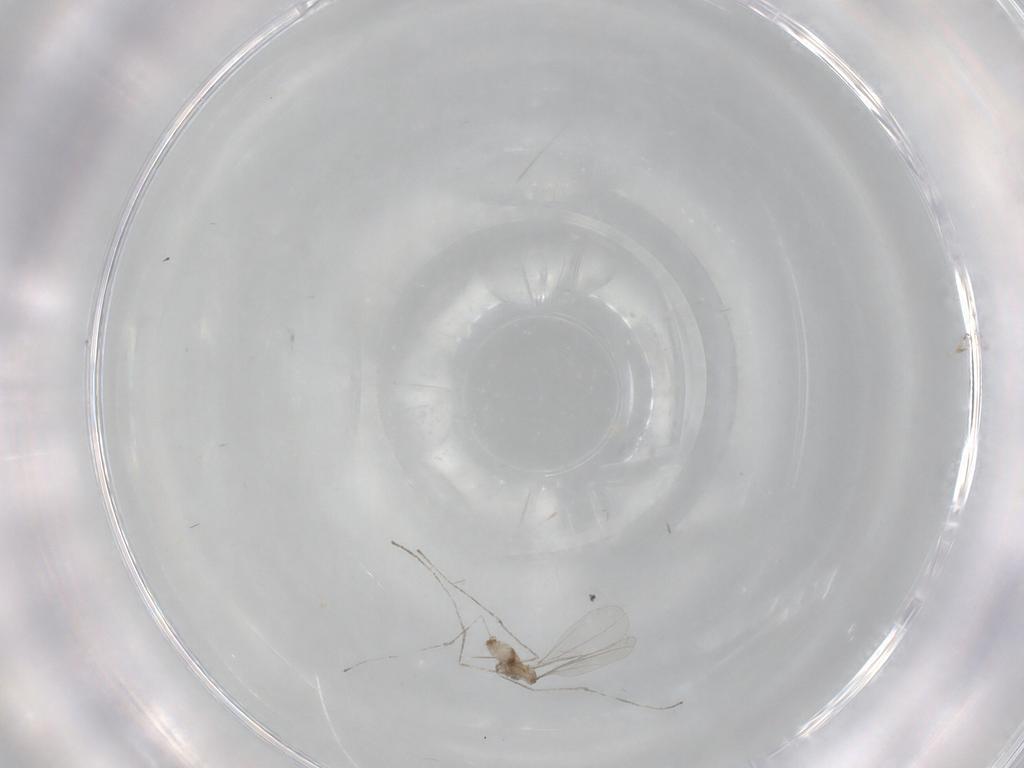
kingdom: Animalia
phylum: Arthropoda
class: Insecta
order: Diptera
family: Cecidomyiidae
